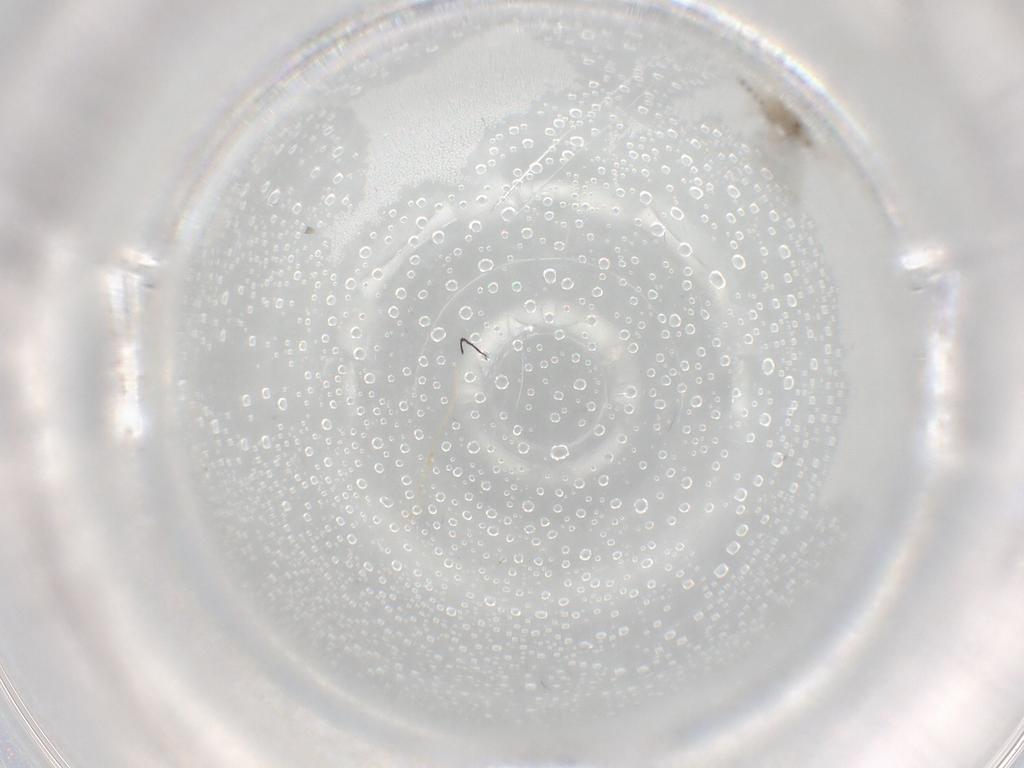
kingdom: Animalia
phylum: Arthropoda
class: Insecta
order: Diptera
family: Cecidomyiidae
